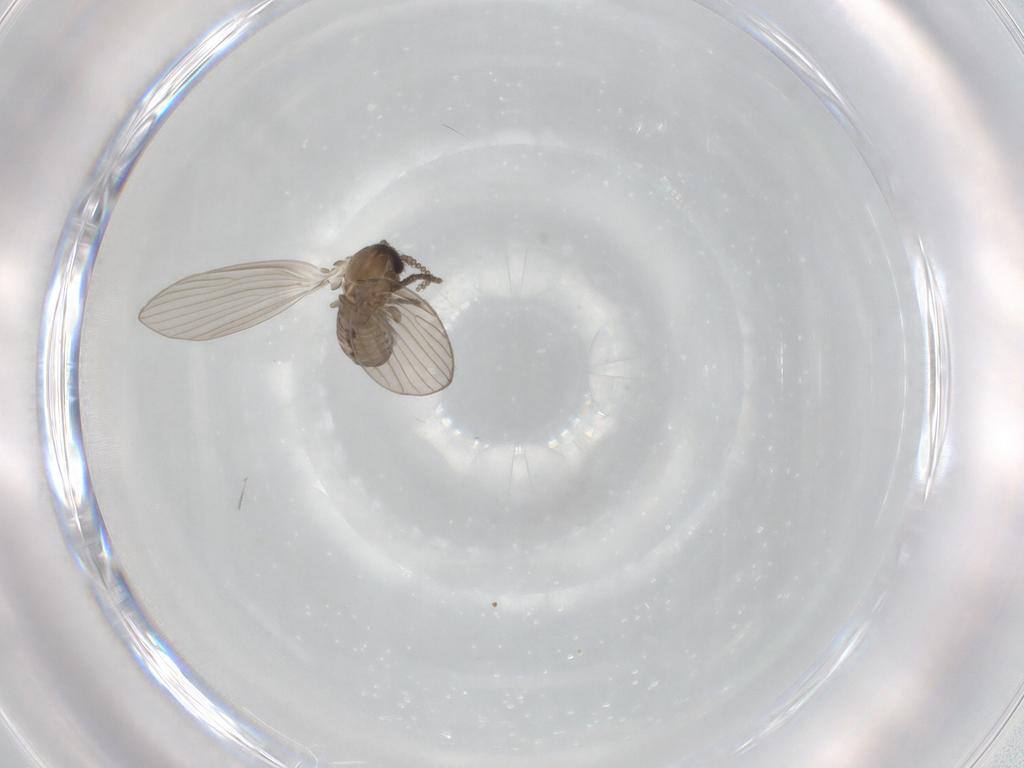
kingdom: Animalia
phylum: Arthropoda
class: Insecta
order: Diptera
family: Psychodidae
